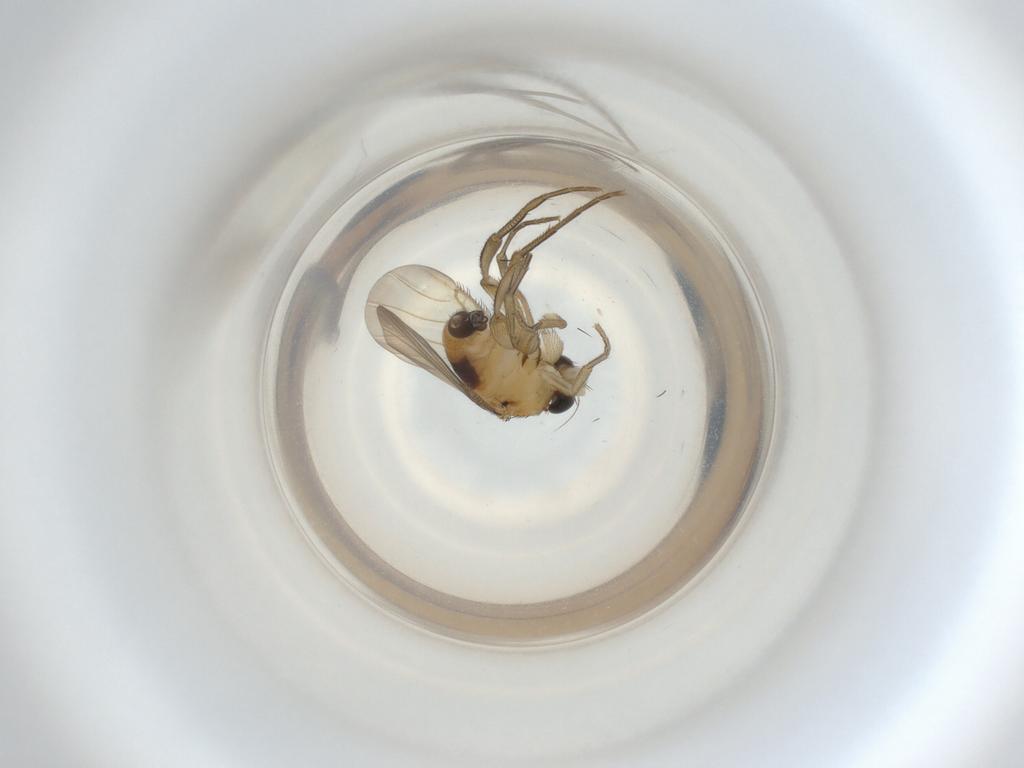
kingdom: Animalia
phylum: Arthropoda
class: Insecta
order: Diptera
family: Phoridae
